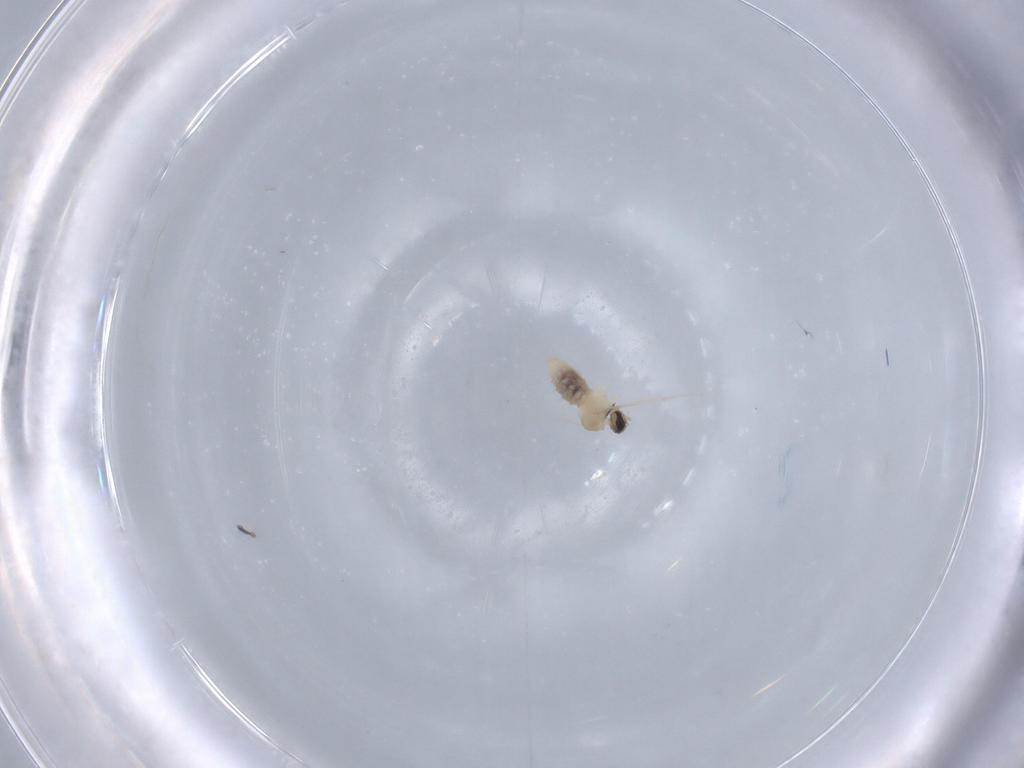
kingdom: Animalia
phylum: Arthropoda
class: Insecta
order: Diptera
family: Cecidomyiidae
